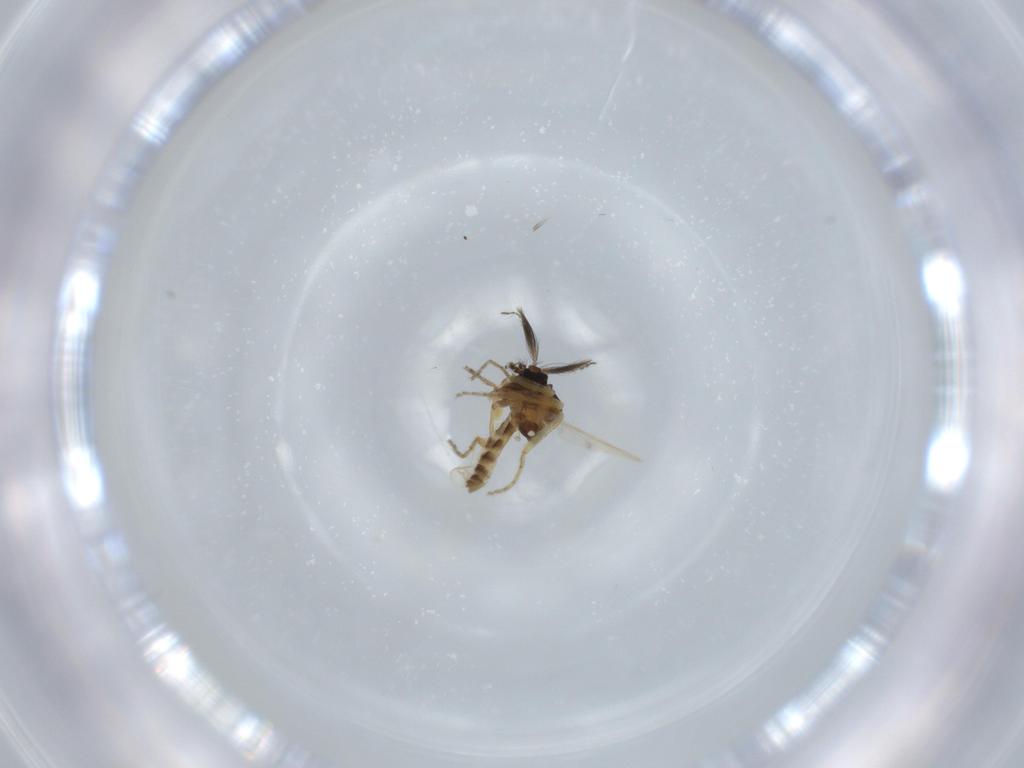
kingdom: Animalia
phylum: Arthropoda
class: Insecta
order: Diptera
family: Ceratopogonidae
